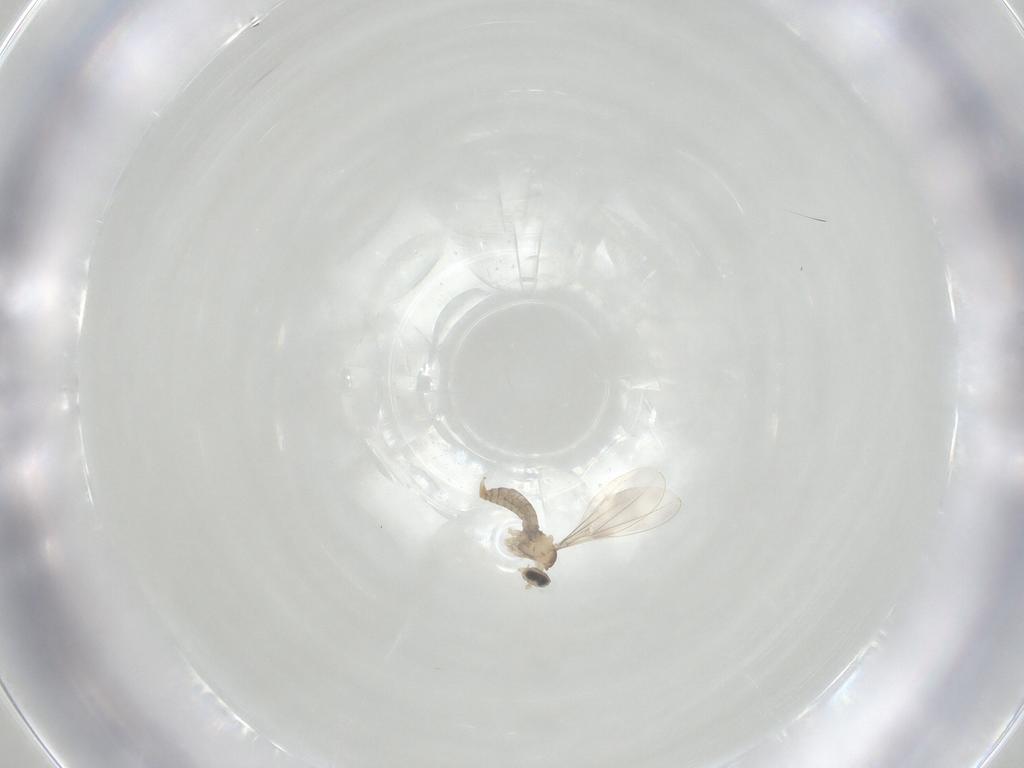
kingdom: Animalia
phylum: Arthropoda
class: Insecta
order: Diptera
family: Cecidomyiidae
